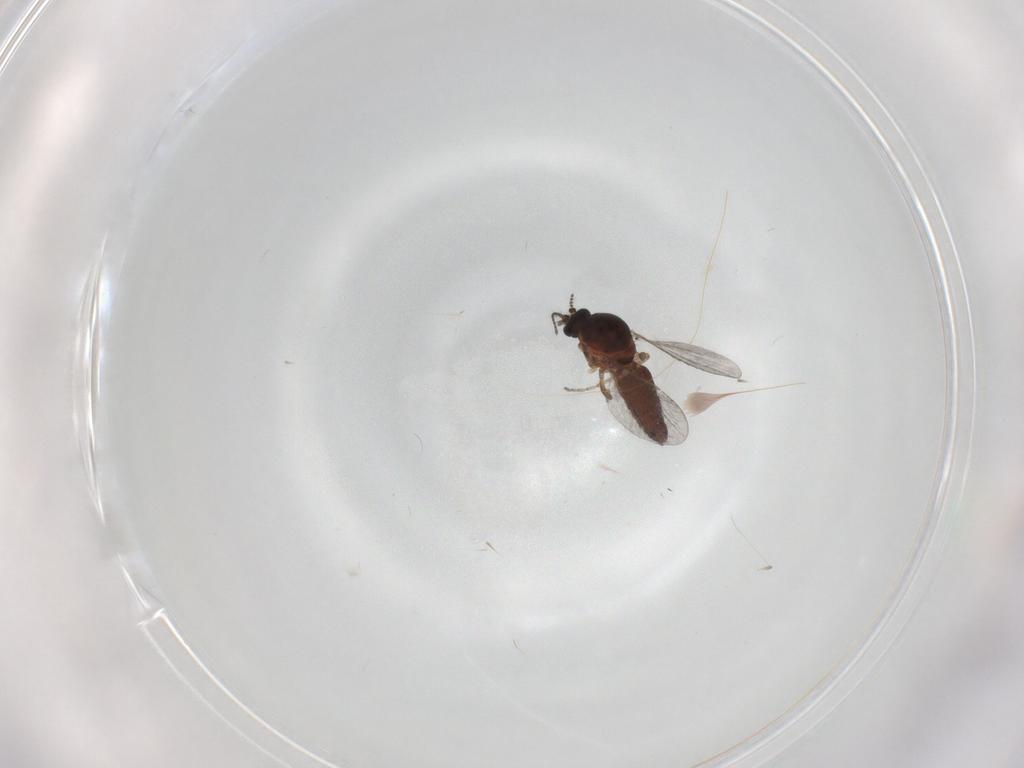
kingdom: Animalia
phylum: Arthropoda
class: Insecta
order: Diptera
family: Ceratopogonidae
